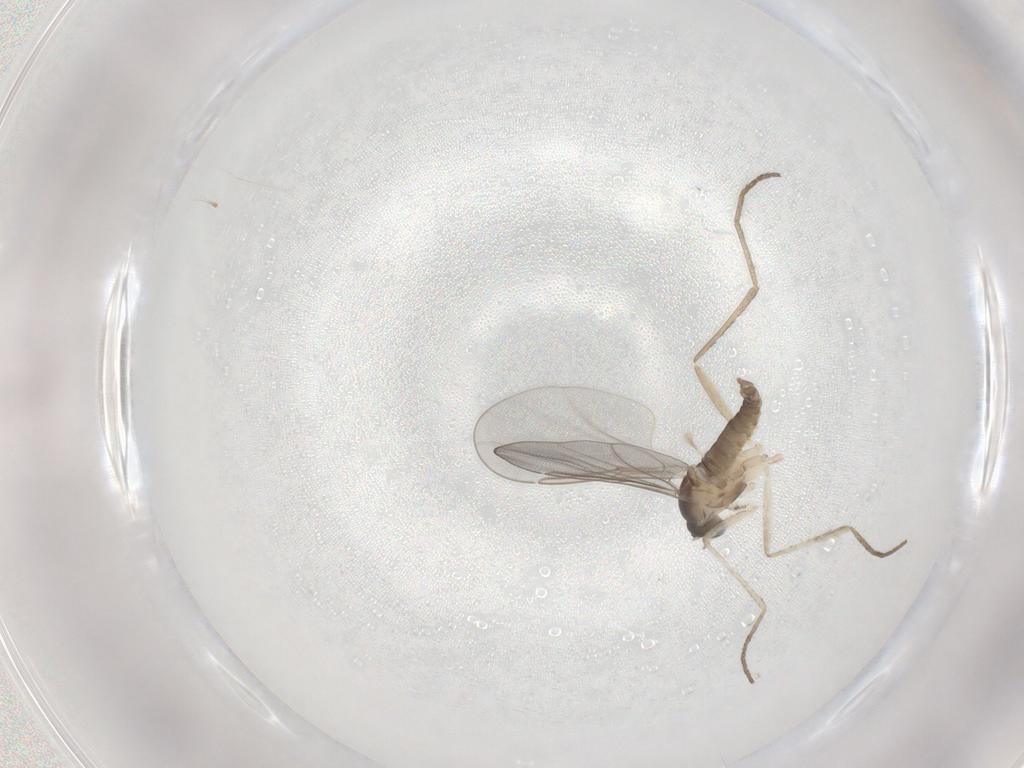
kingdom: Animalia
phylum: Arthropoda
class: Insecta
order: Diptera
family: Cecidomyiidae
